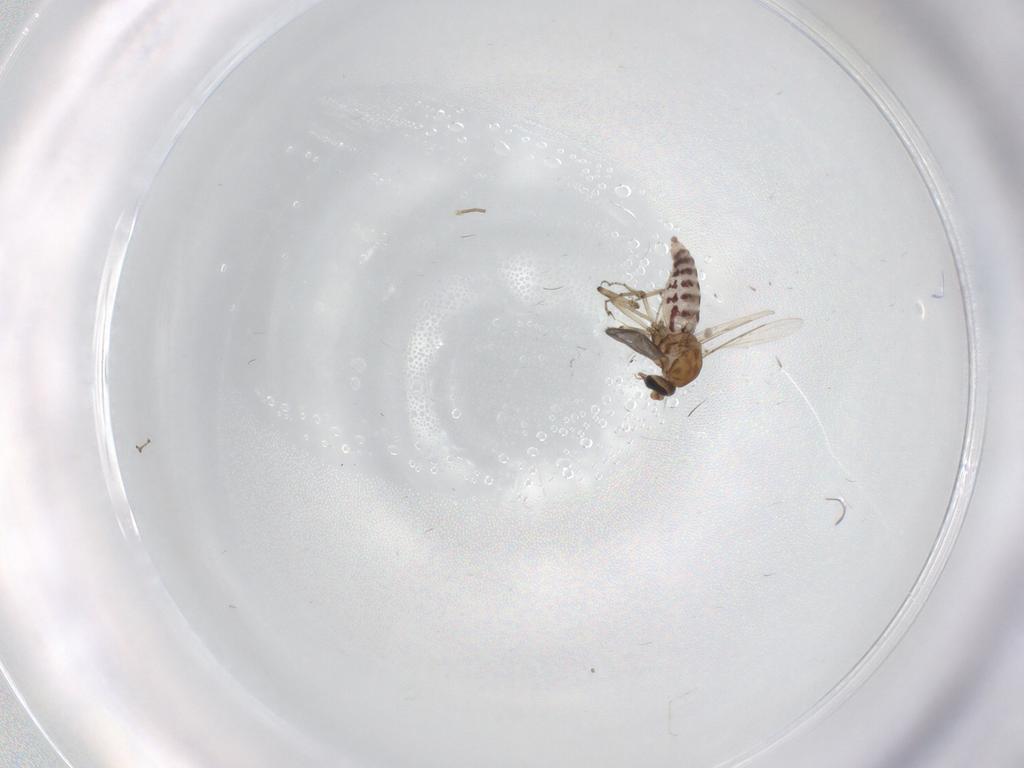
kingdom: Animalia
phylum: Arthropoda
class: Insecta
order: Diptera
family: Sciaridae
